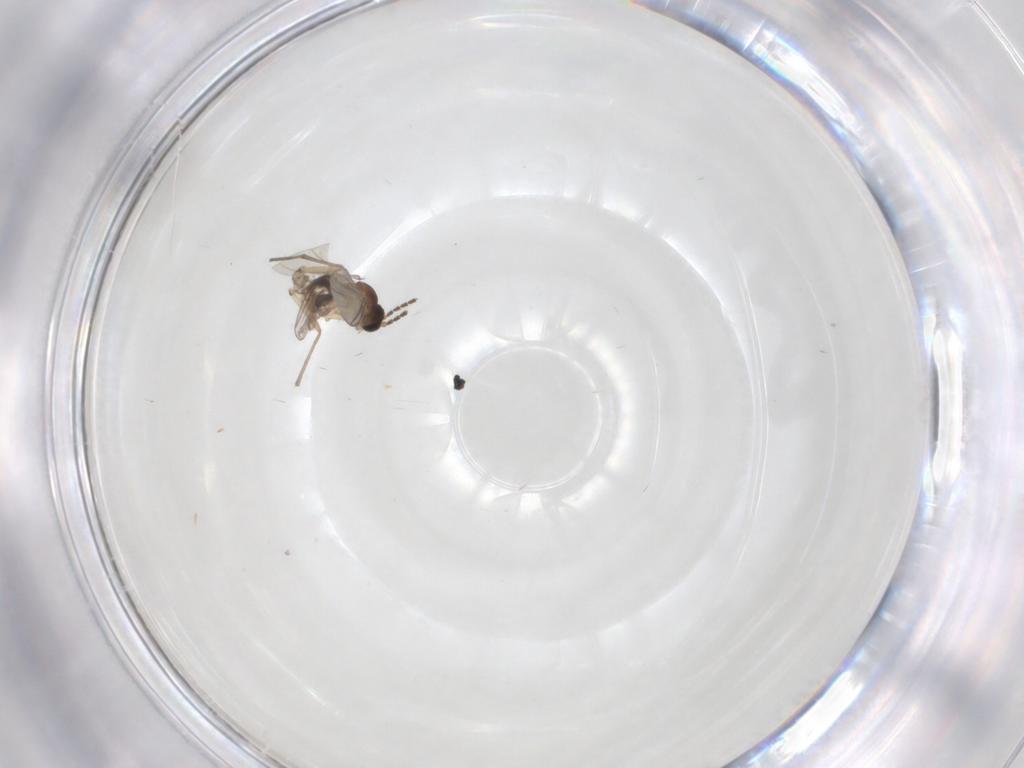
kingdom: Animalia
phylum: Arthropoda
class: Insecta
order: Diptera
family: Sciaridae
